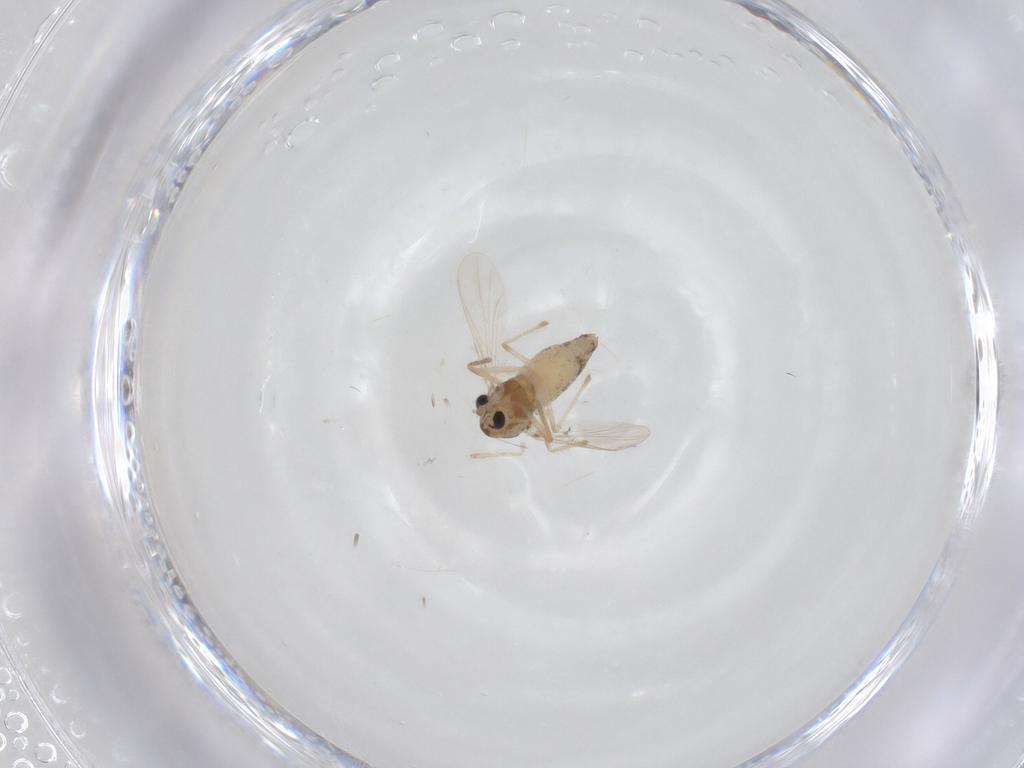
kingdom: Animalia
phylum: Arthropoda
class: Insecta
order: Diptera
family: Chironomidae
